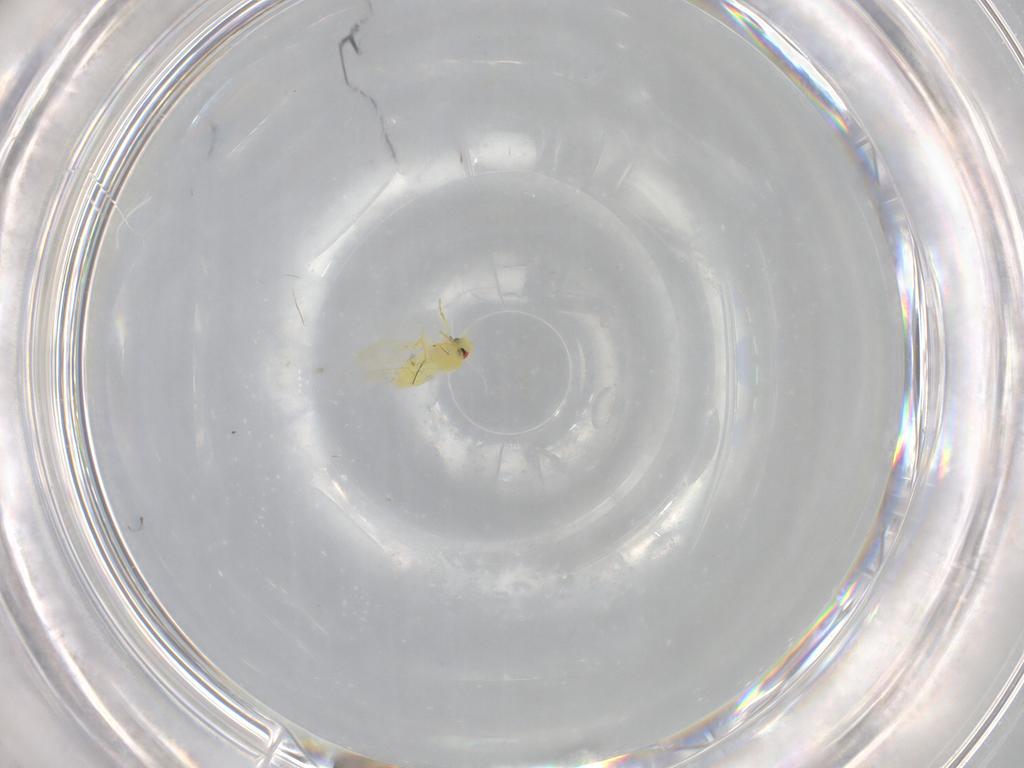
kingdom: Animalia
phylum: Arthropoda
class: Insecta
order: Hemiptera
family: Aleyrodidae
